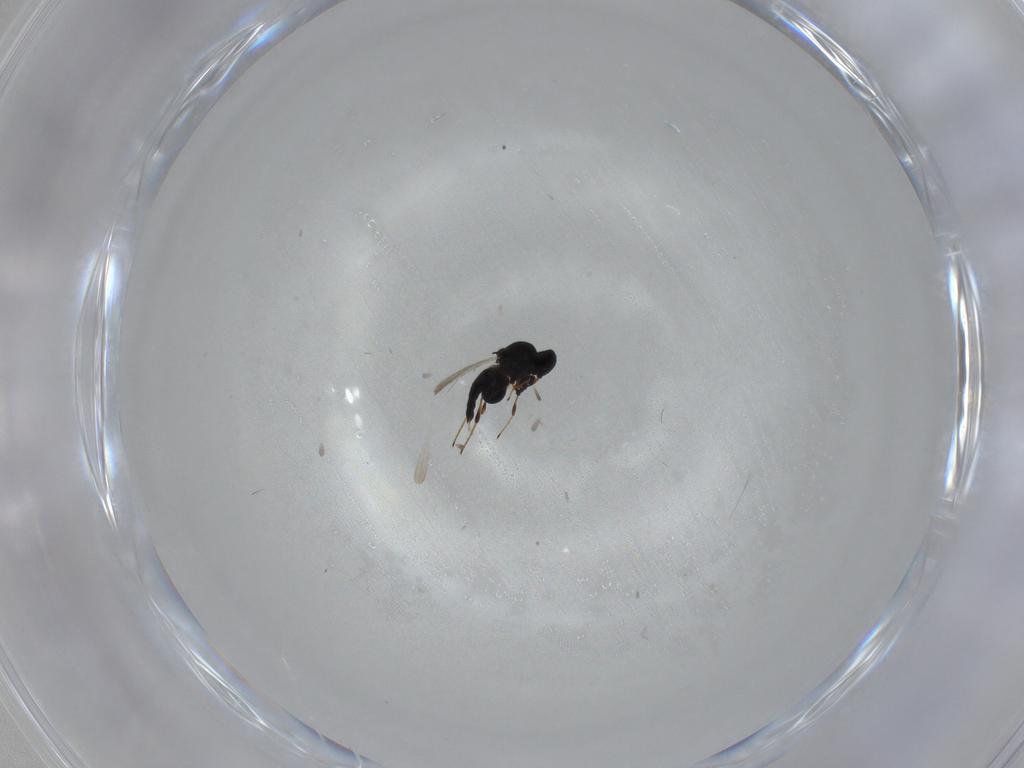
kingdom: Animalia
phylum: Arthropoda
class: Insecta
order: Hymenoptera
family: Platygastridae
